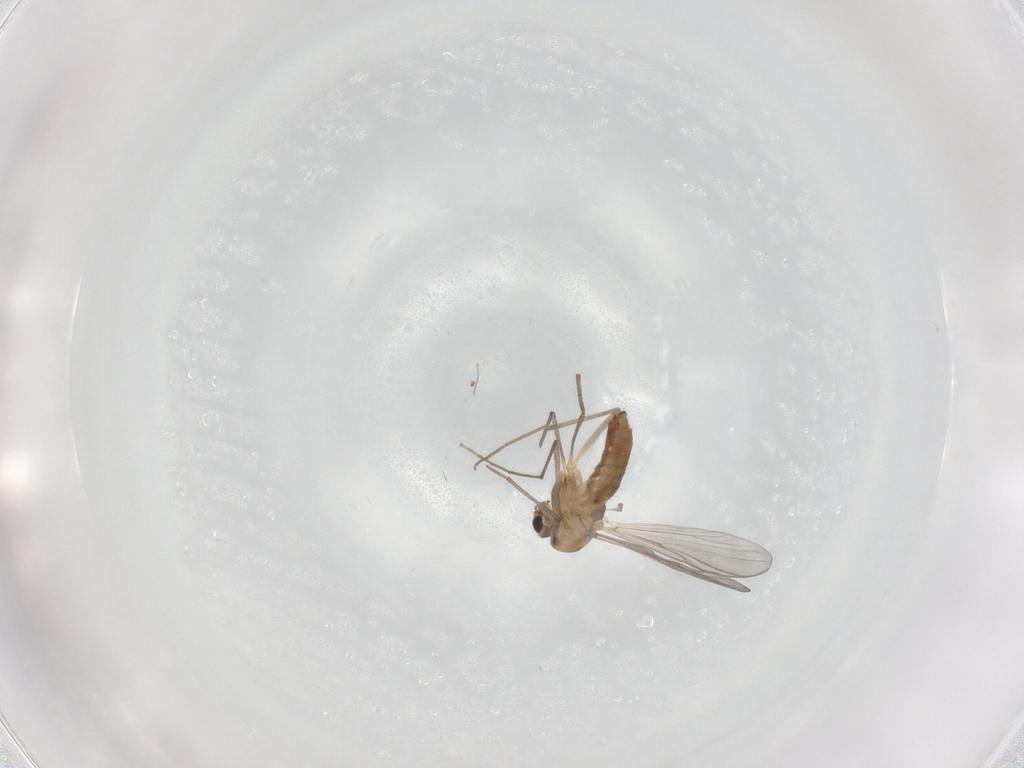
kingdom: Animalia
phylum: Arthropoda
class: Insecta
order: Diptera
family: Chironomidae
